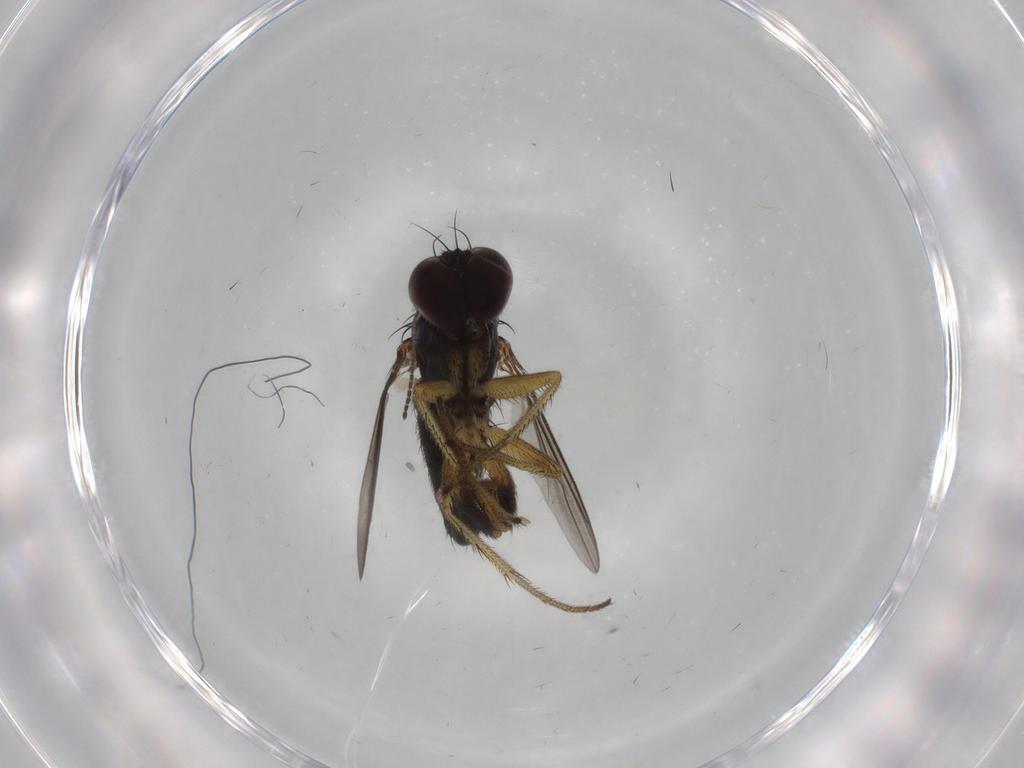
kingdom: Animalia
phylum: Arthropoda
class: Insecta
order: Diptera
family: Dolichopodidae
